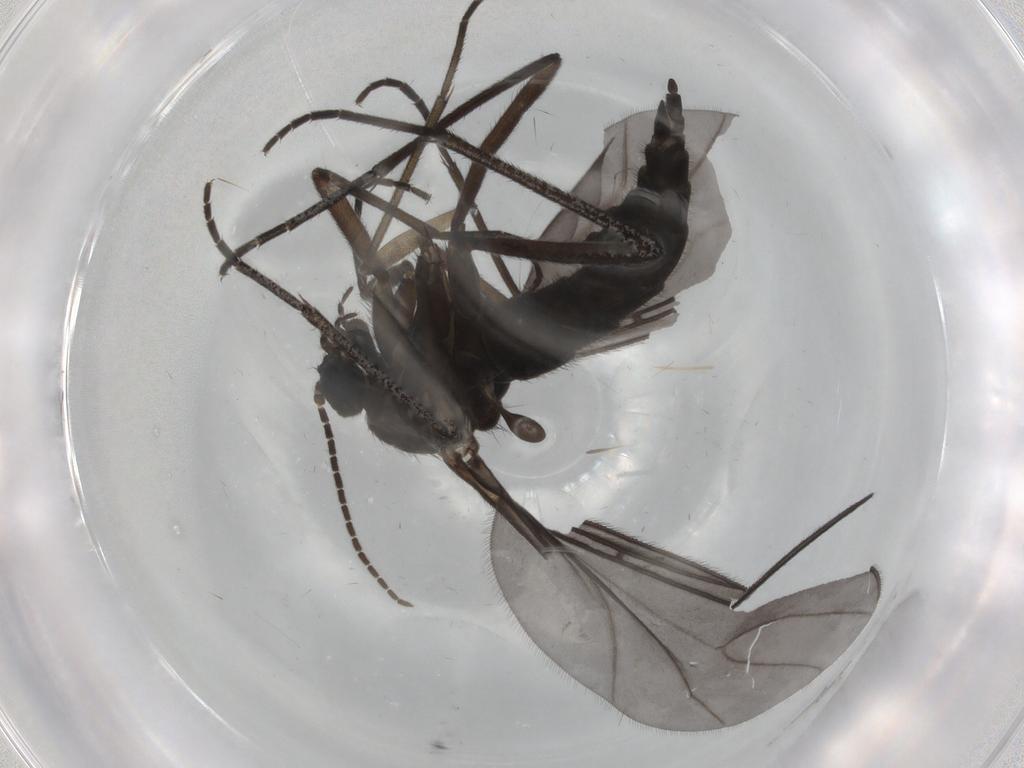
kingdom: Animalia
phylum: Arthropoda
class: Insecta
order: Diptera
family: Sciaridae
